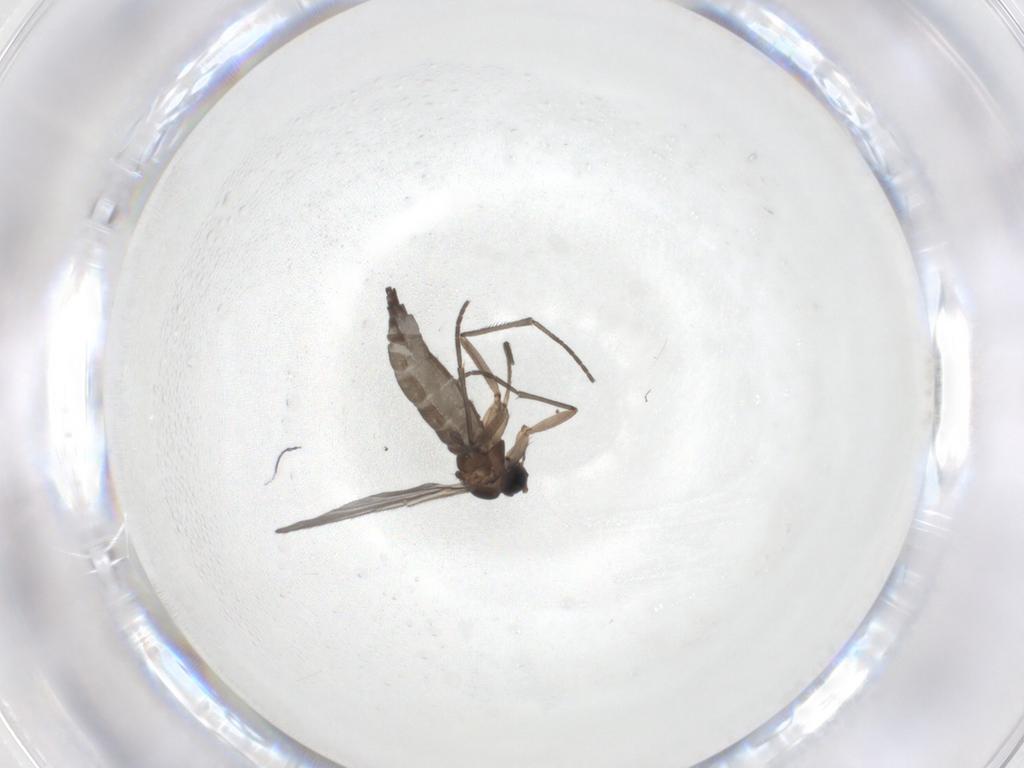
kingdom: Animalia
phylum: Arthropoda
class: Insecta
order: Diptera
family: Sciaridae
